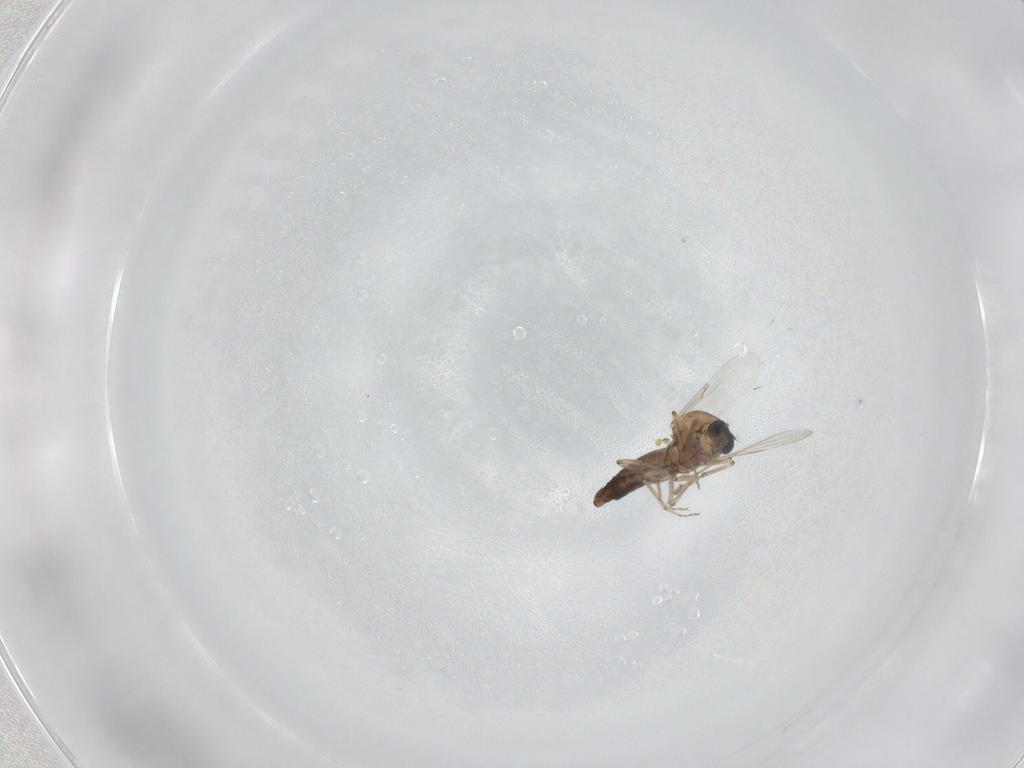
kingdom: Animalia
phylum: Arthropoda
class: Insecta
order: Diptera
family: Ceratopogonidae
